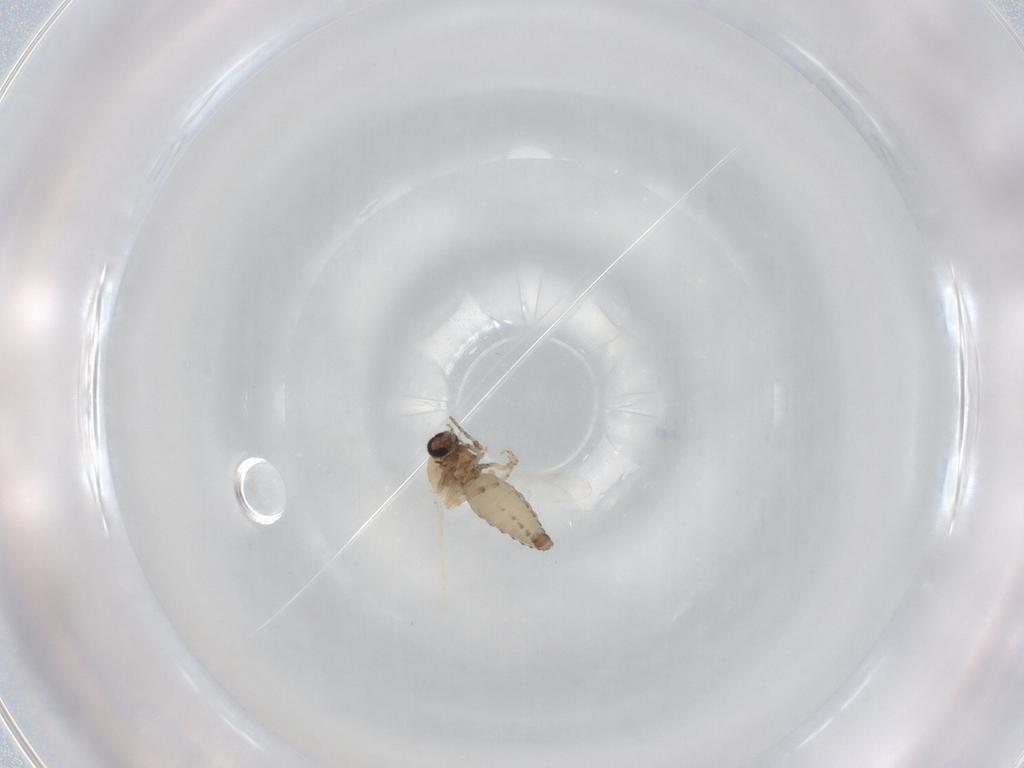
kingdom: Animalia
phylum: Arthropoda
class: Insecta
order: Diptera
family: Ceratopogonidae
